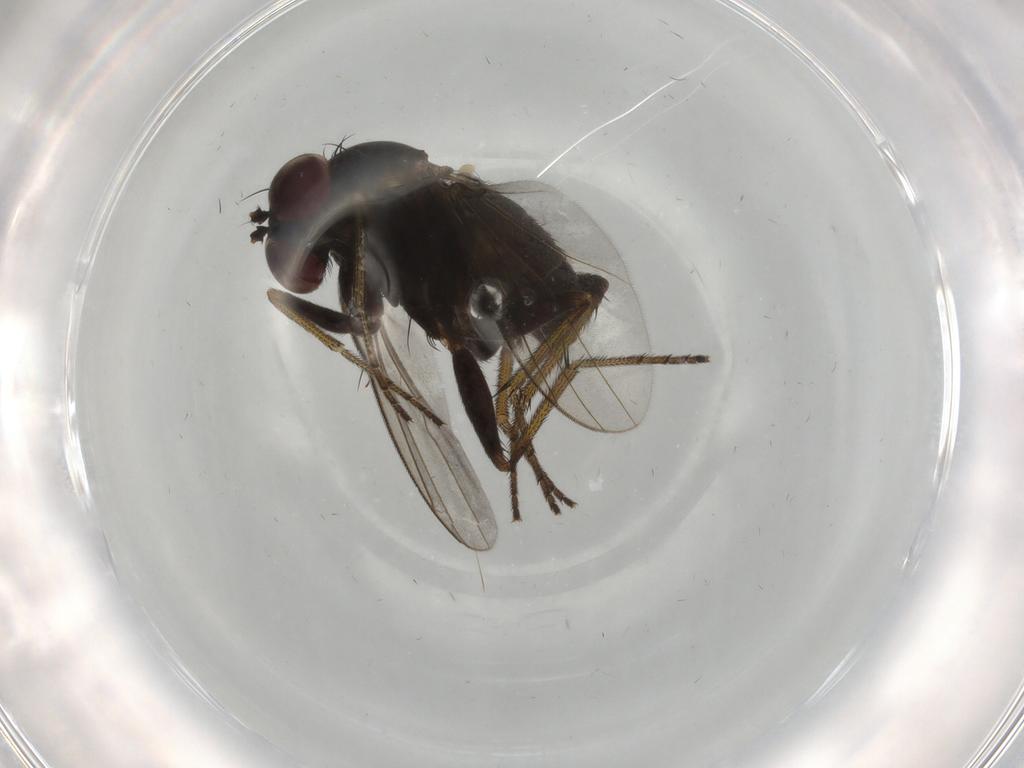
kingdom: Animalia
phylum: Arthropoda
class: Insecta
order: Diptera
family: Dolichopodidae
